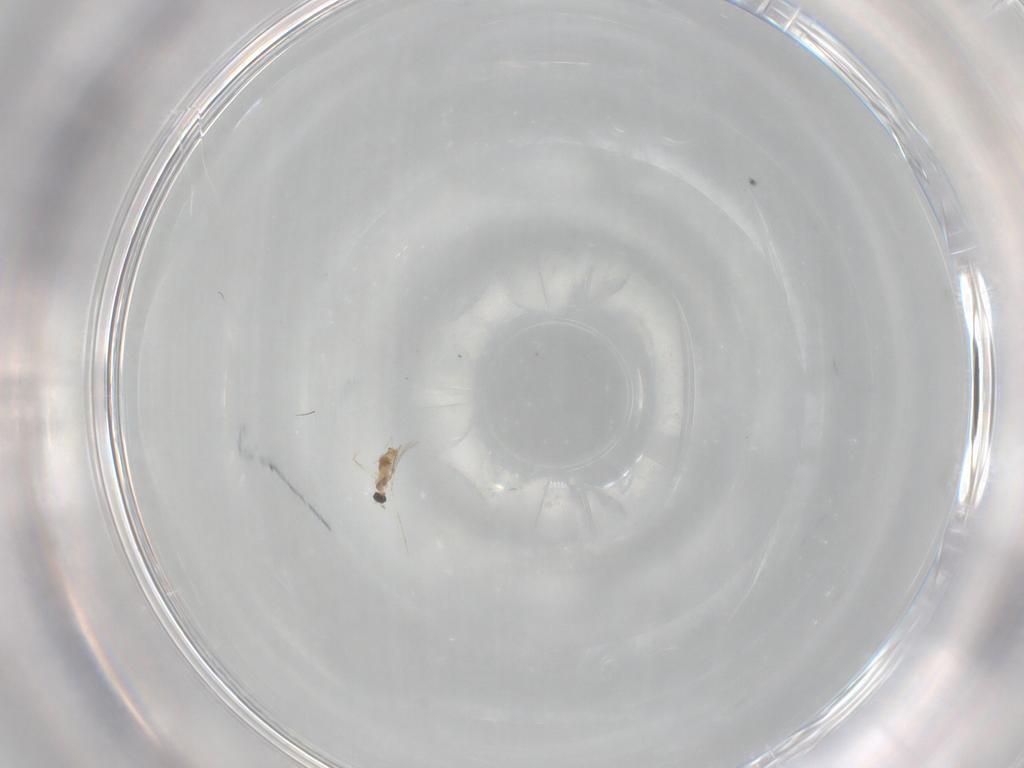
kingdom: Animalia
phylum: Arthropoda
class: Insecta
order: Diptera
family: Cecidomyiidae
